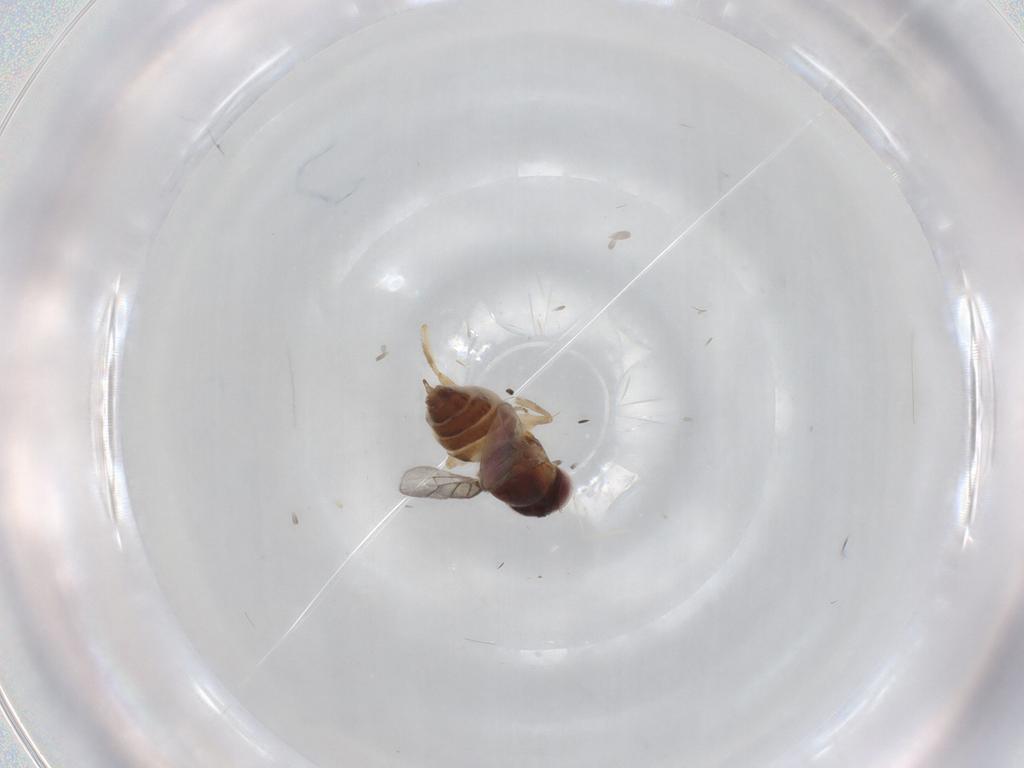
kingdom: Animalia
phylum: Arthropoda
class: Insecta
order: Diptera
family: Chloropidae
